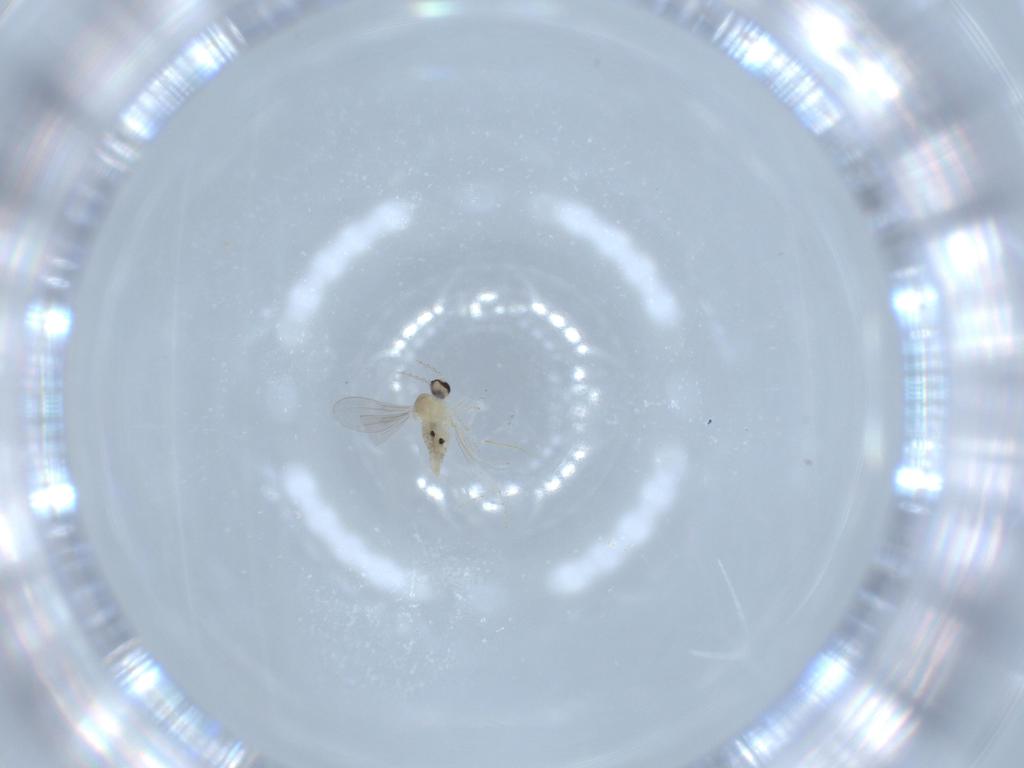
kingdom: Animalia
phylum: Arthropoda
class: Insecta
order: Diptera
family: Cecidomyiidae
